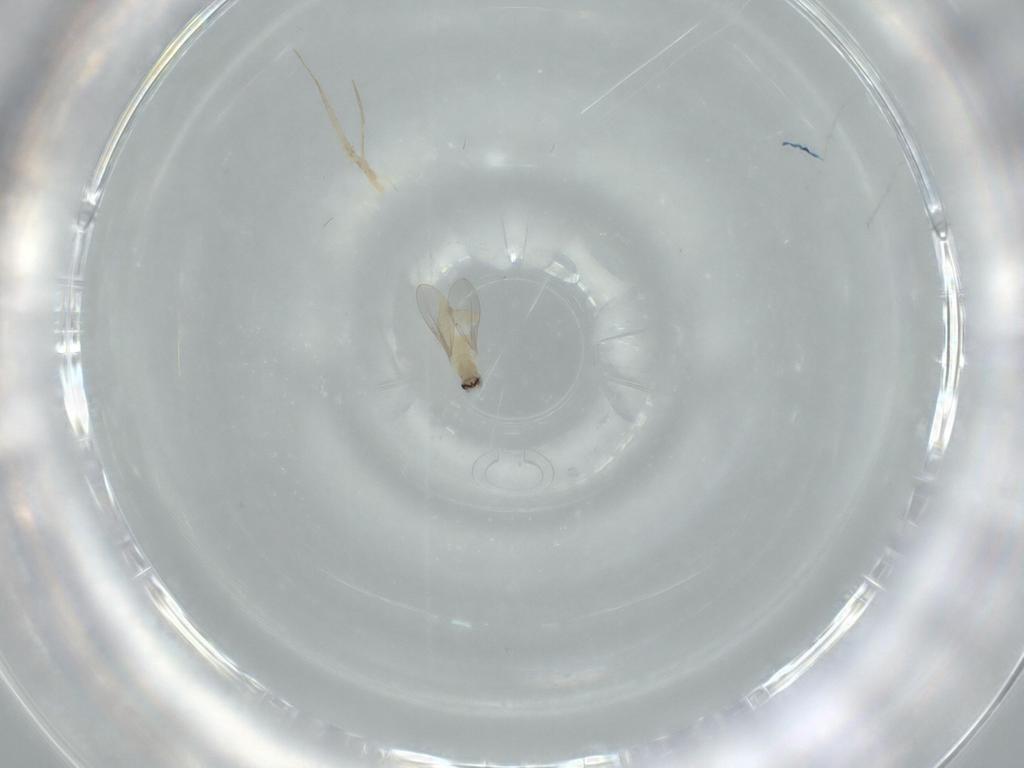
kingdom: Animalia
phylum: Arthropoda
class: Insecta
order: Diptera
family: Cecidomyiidae
